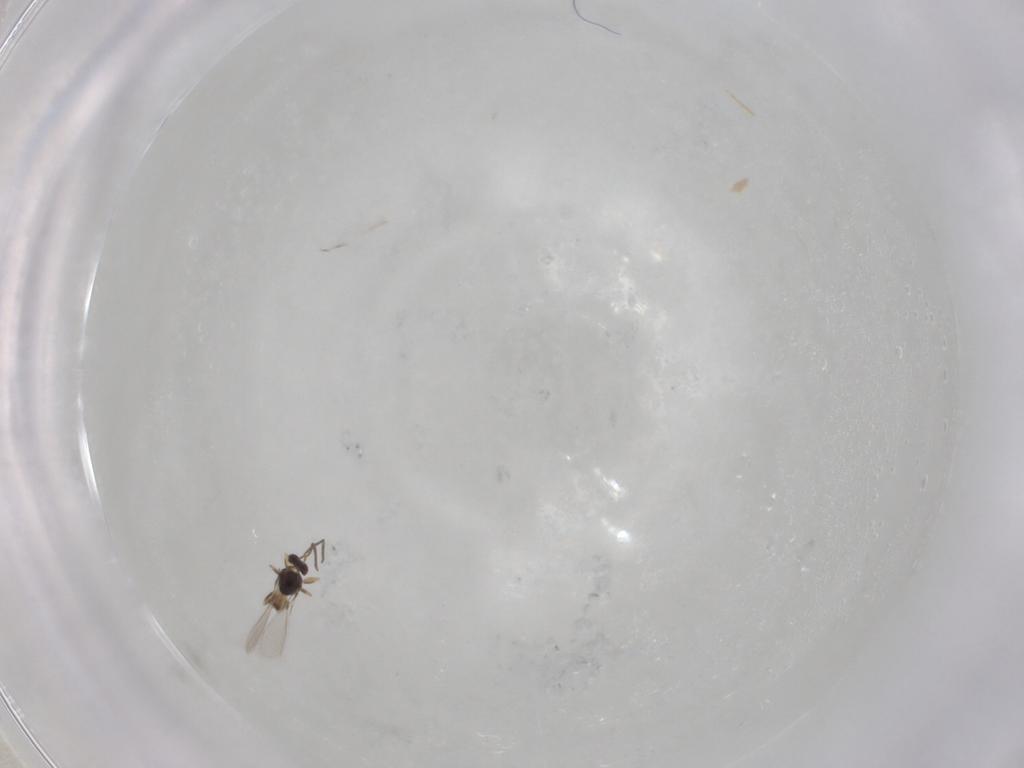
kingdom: Animalia
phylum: Arthropoda
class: Insecta
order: Hymenoptera
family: Mymaridae
